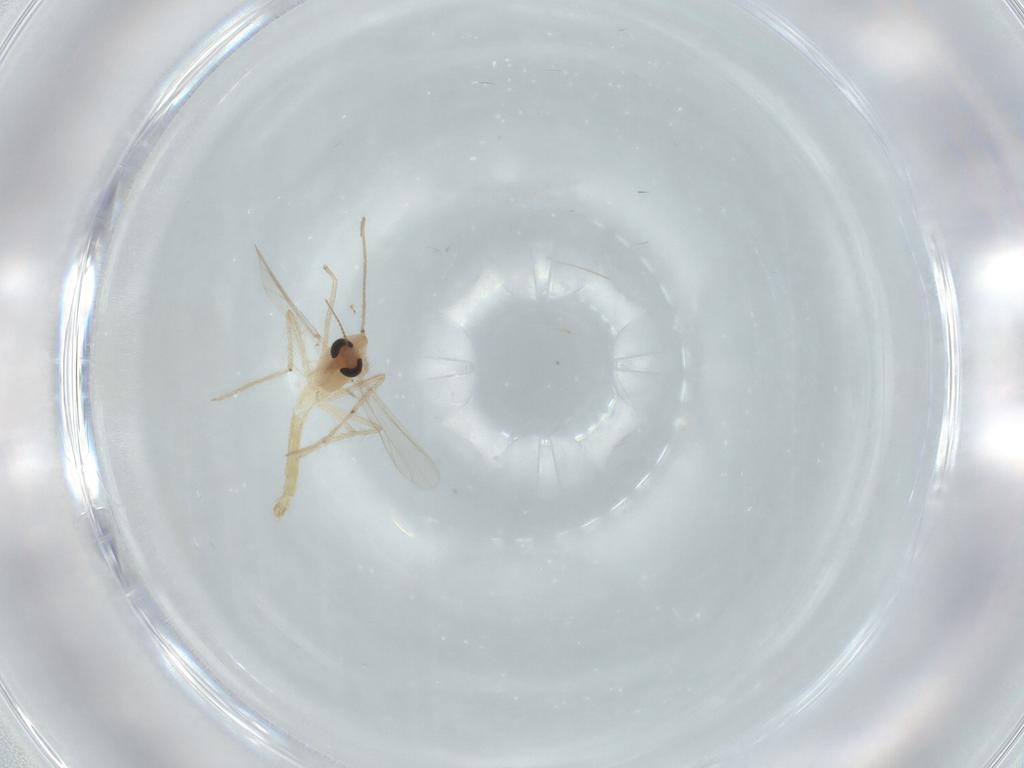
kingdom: Animalia
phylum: Arthropoda
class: Insecta
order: Diptera
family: Chironomidae
